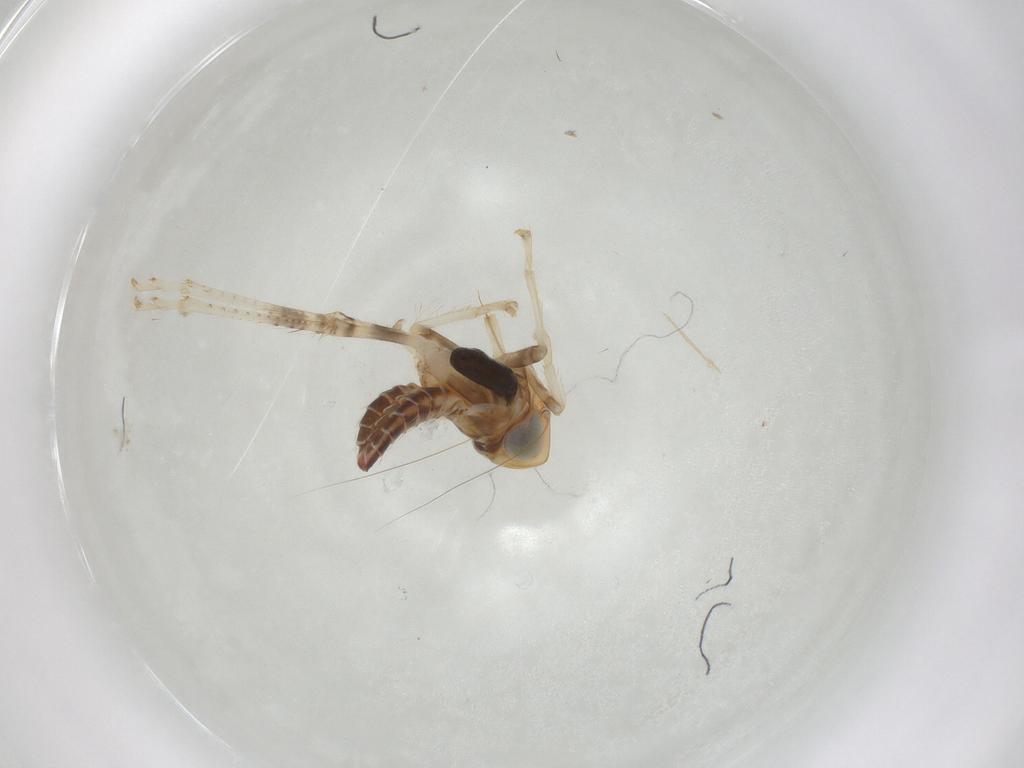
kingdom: Animalia
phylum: Arthropoda
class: Insecta
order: Hemiptera
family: Cicadellidae
